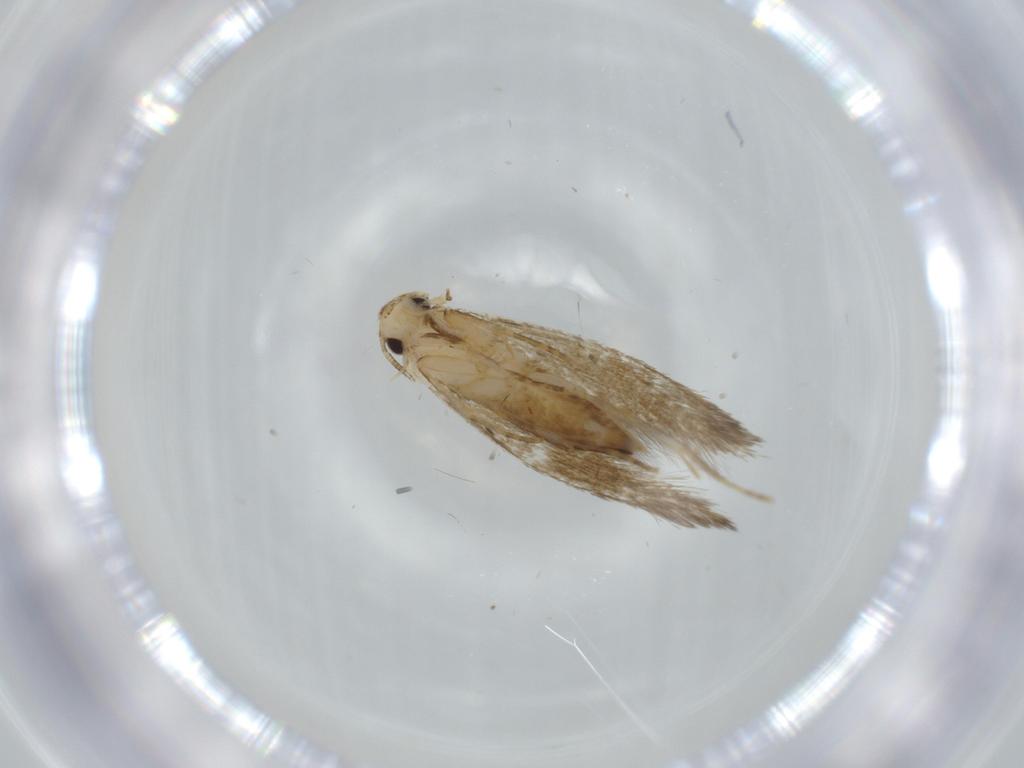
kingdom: Animalia
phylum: Arthropoda
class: Insecta
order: Lepidoptera
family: Tineidae
